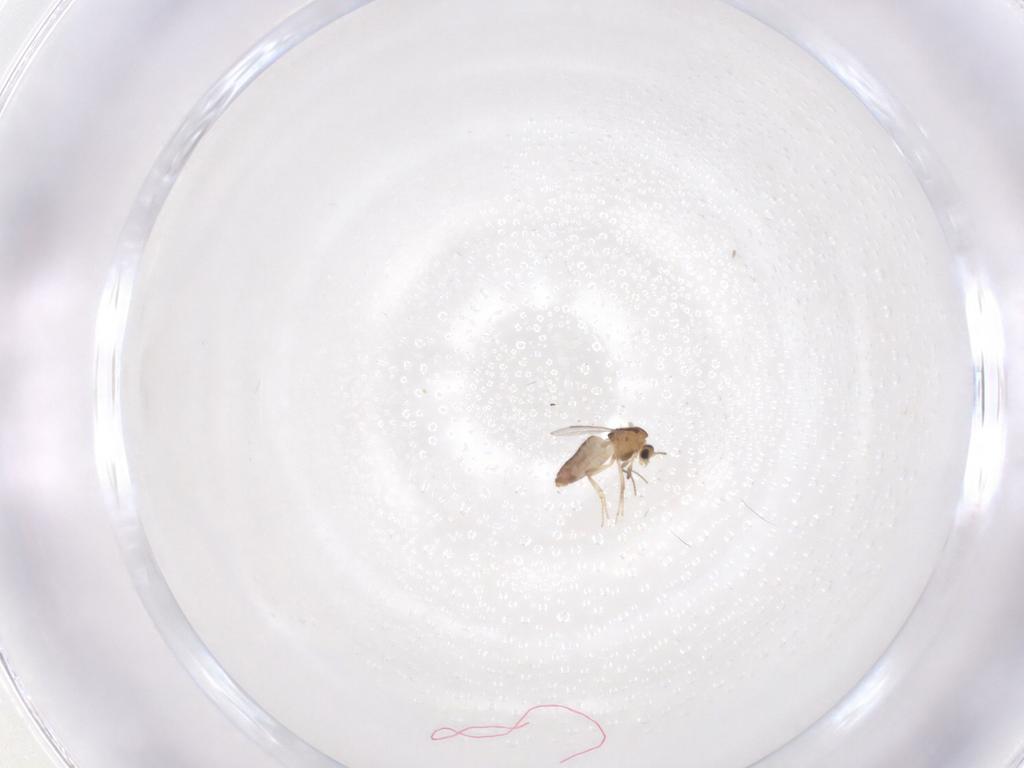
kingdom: Animalia
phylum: Arthropoda
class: Insecta
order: Diptera
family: Chironomidae
